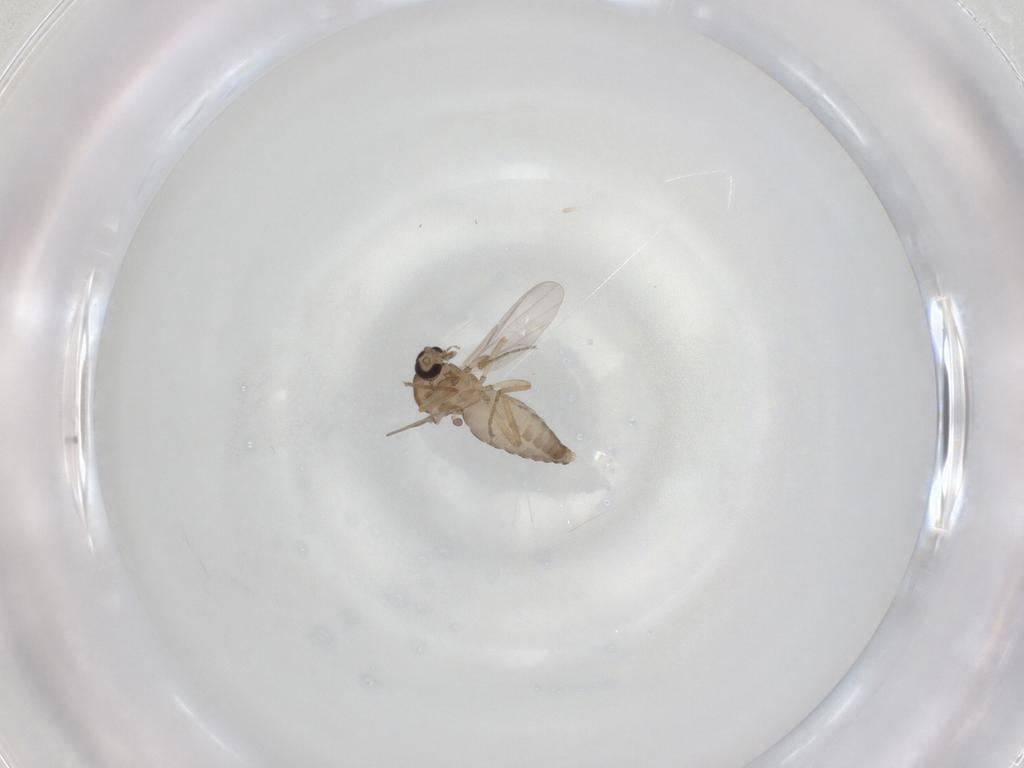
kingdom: Animalia
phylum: Arthropoda
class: Insecta
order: Diptera
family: Ceratopogonidae
